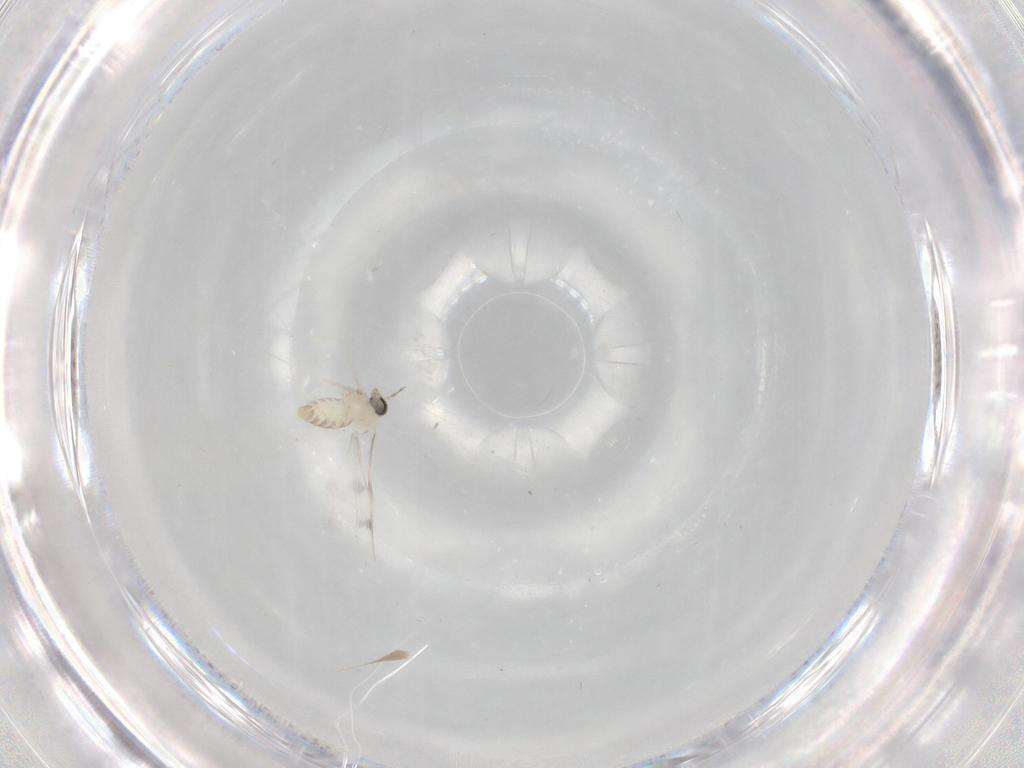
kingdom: Animalia
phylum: Arthropoda
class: Insecta
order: Diptera
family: Cecidomyiidae
